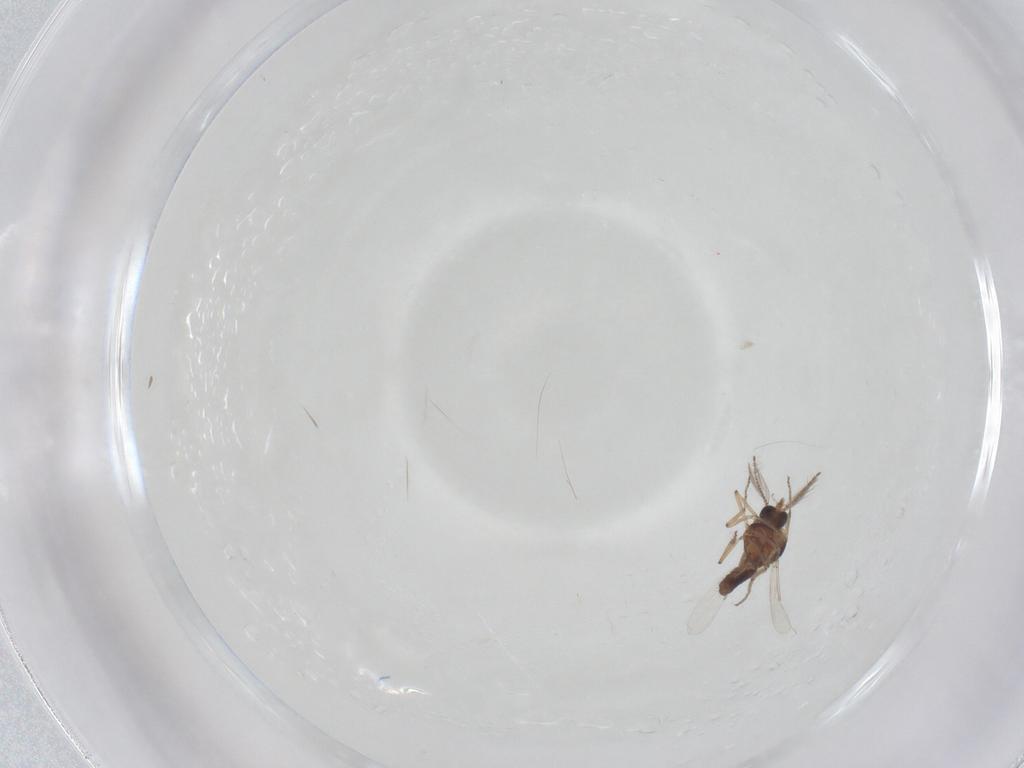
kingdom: Animalia
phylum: Arthropoda
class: Insecta
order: Diptera
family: Ceratopogonidae
